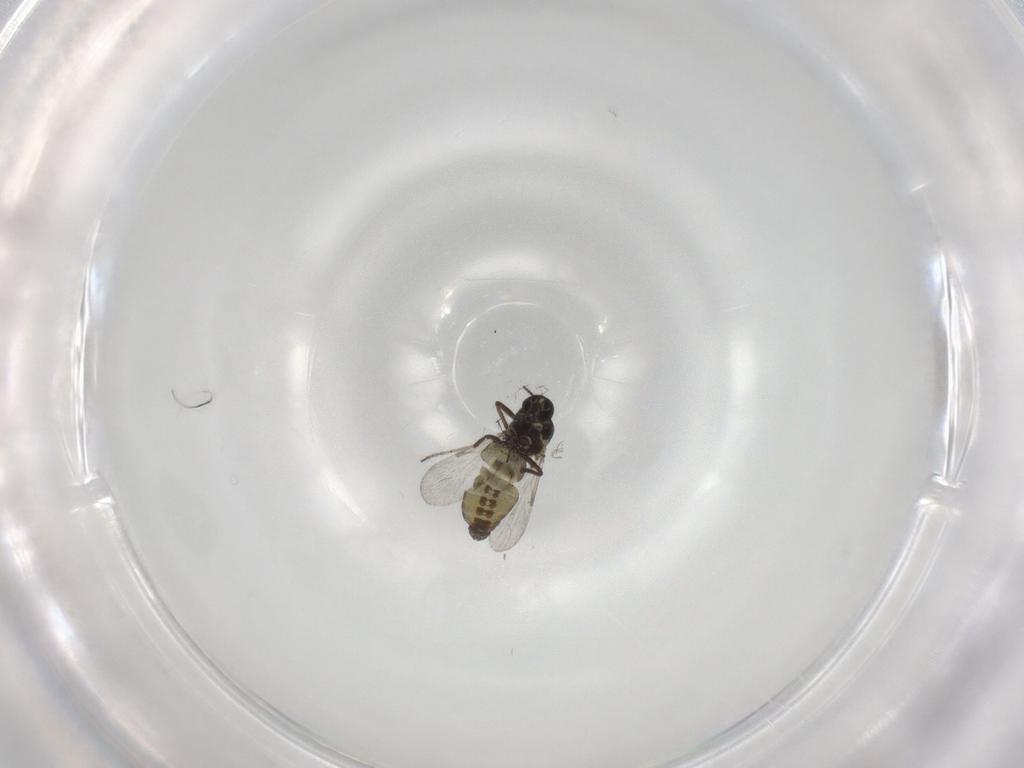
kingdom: Animalia
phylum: Arthropoda
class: Insecta
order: Diptera
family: Ceratopogonidae
